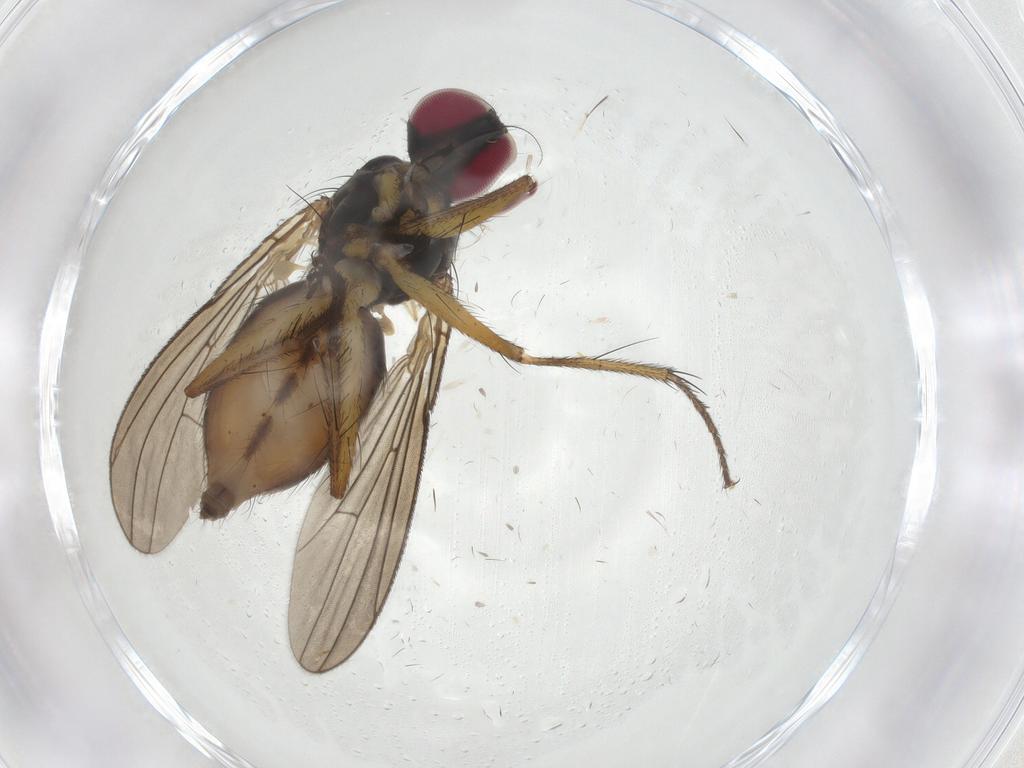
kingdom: Animalia
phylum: Arthropoda
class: Insecta
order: Diptera
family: Anthomyiidae
